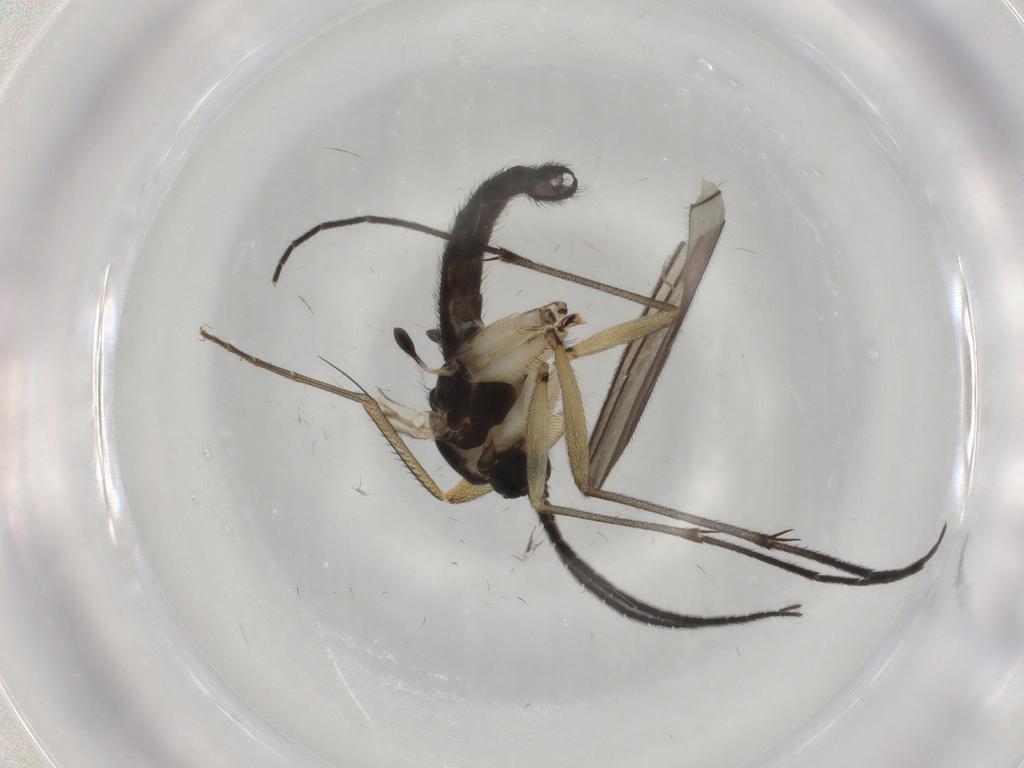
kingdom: Animalia
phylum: Arthropoda
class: Insecta
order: Diptera
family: Sciaridae
